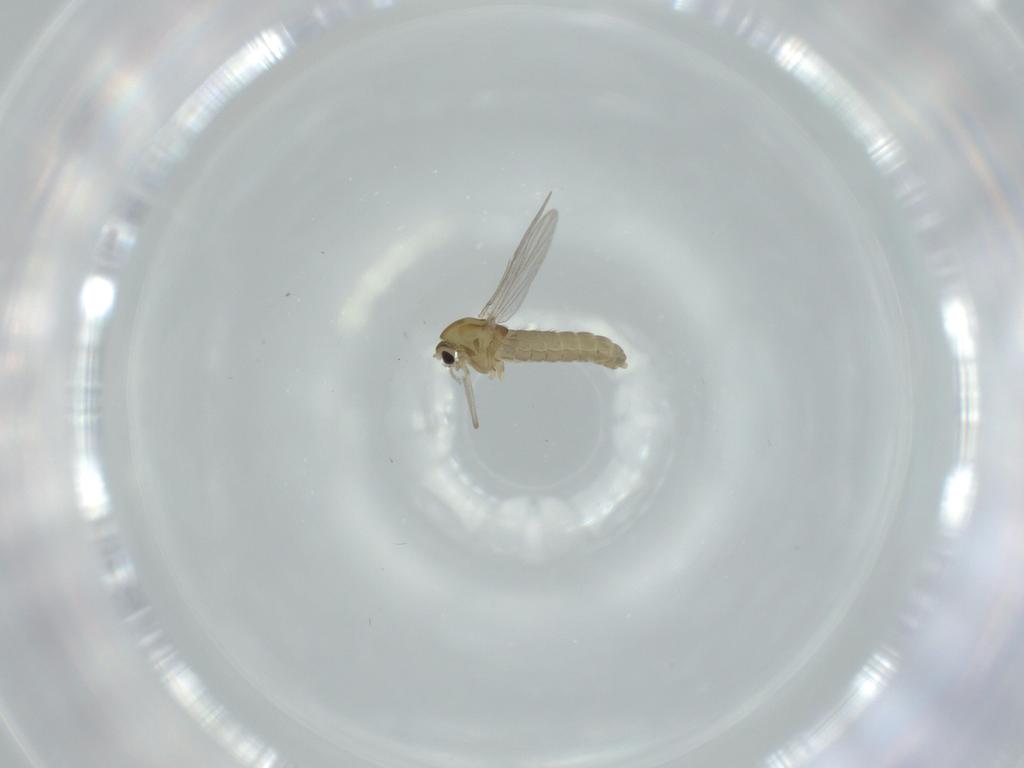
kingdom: Animalia
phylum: Arthropoda
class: Insecta
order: Diptera
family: Chironomidae
